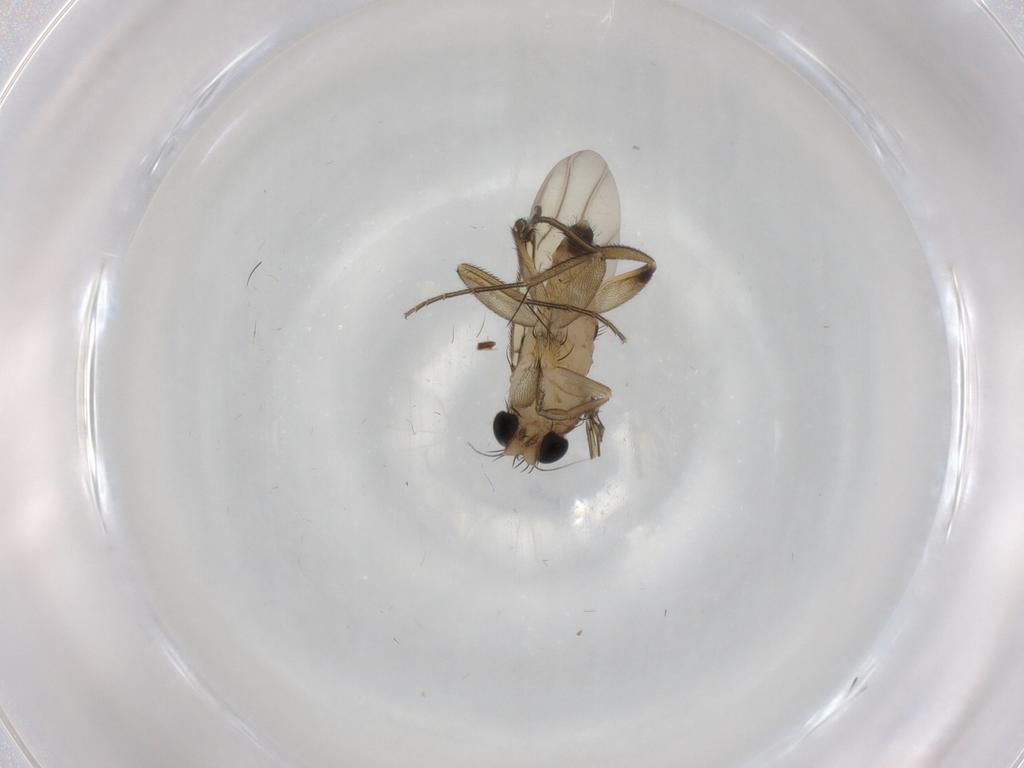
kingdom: Animalia
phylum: Arthropoda
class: Insecta
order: Diptera
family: Phoridae
